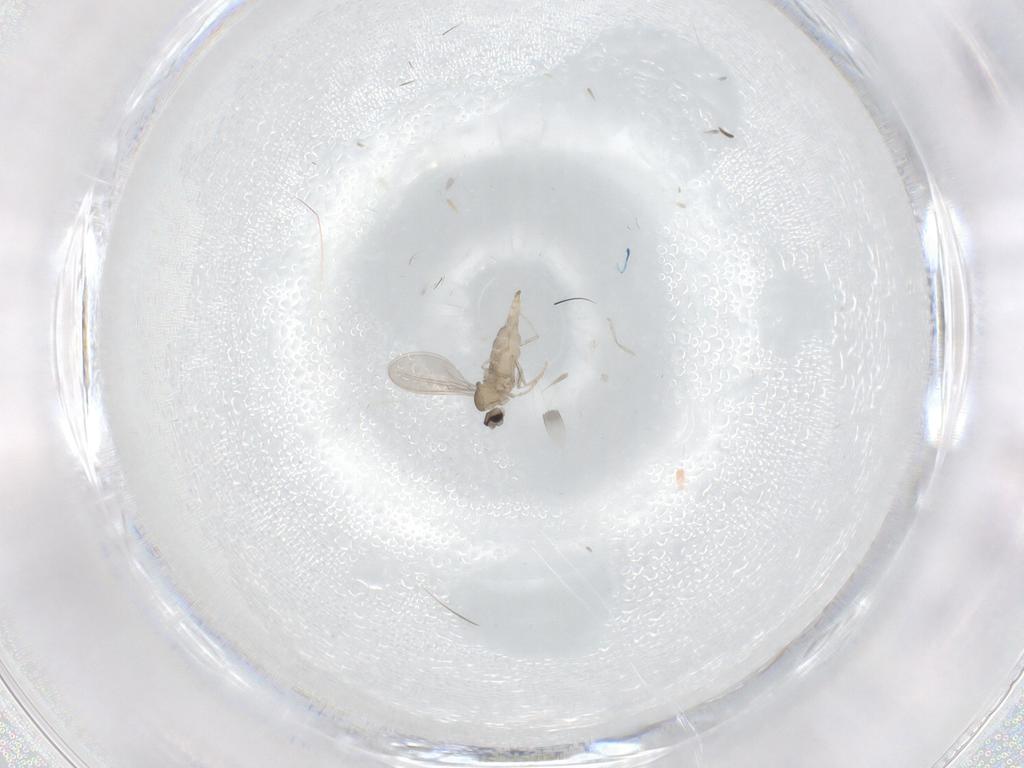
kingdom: Animalia
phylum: Arthropoda
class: Insecta
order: Diptera
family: Cecidomyiidae
